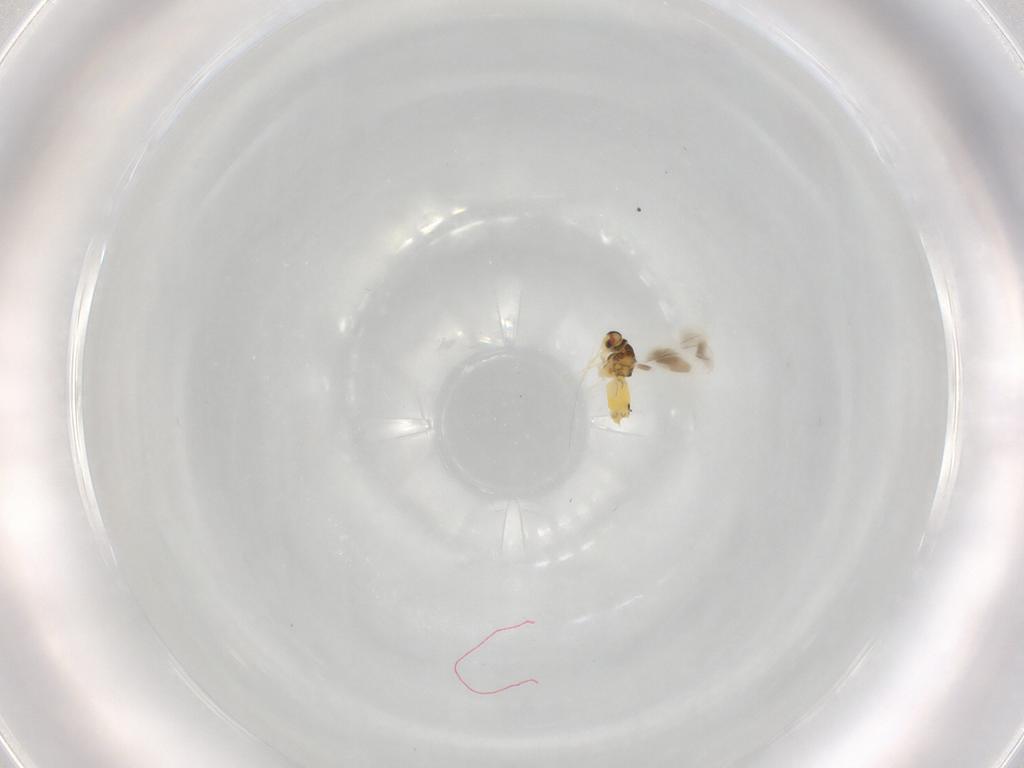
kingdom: Animalia
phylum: Arthropoda
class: Insecta
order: Hemiptera
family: Aleyrodidae
